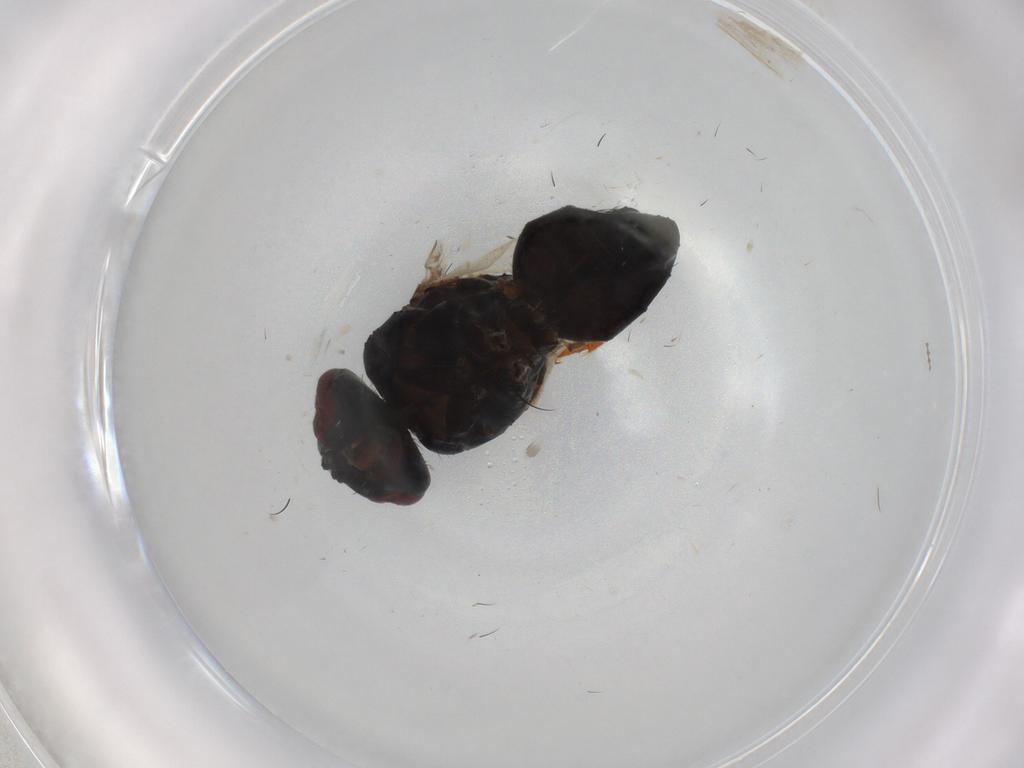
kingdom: Animalia
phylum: Arthropoda
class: Insecta
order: Diptera
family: Tachinidae
